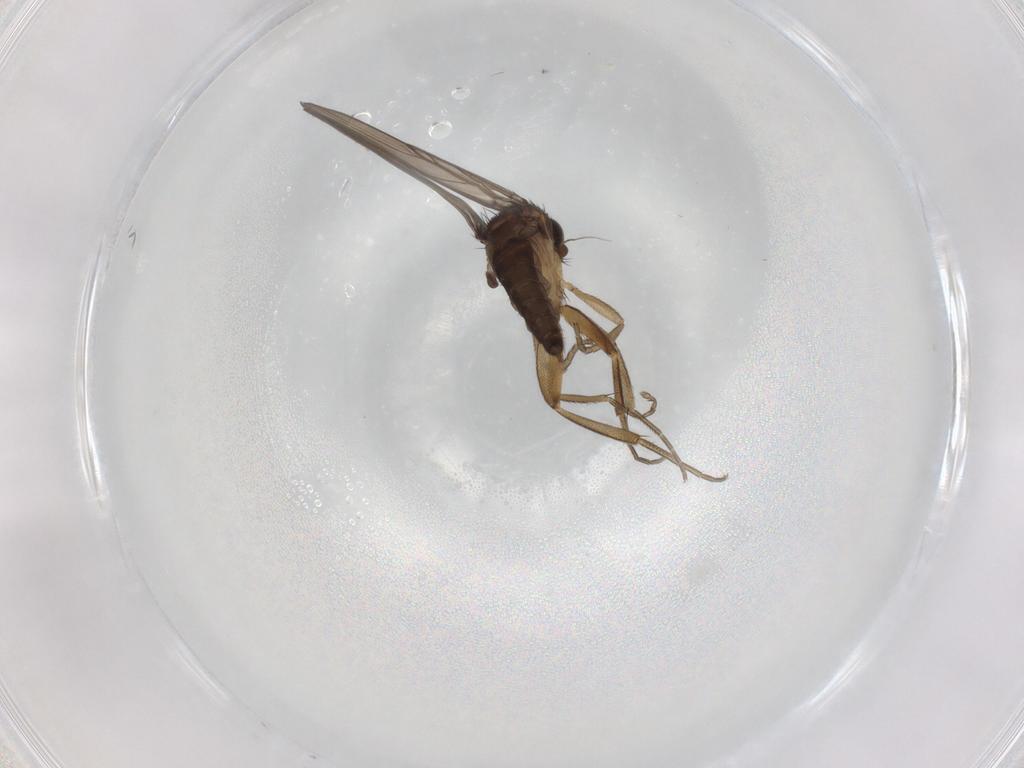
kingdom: Animalia
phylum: Arthropoda
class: Insecta
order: Diptera
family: Phoridae
